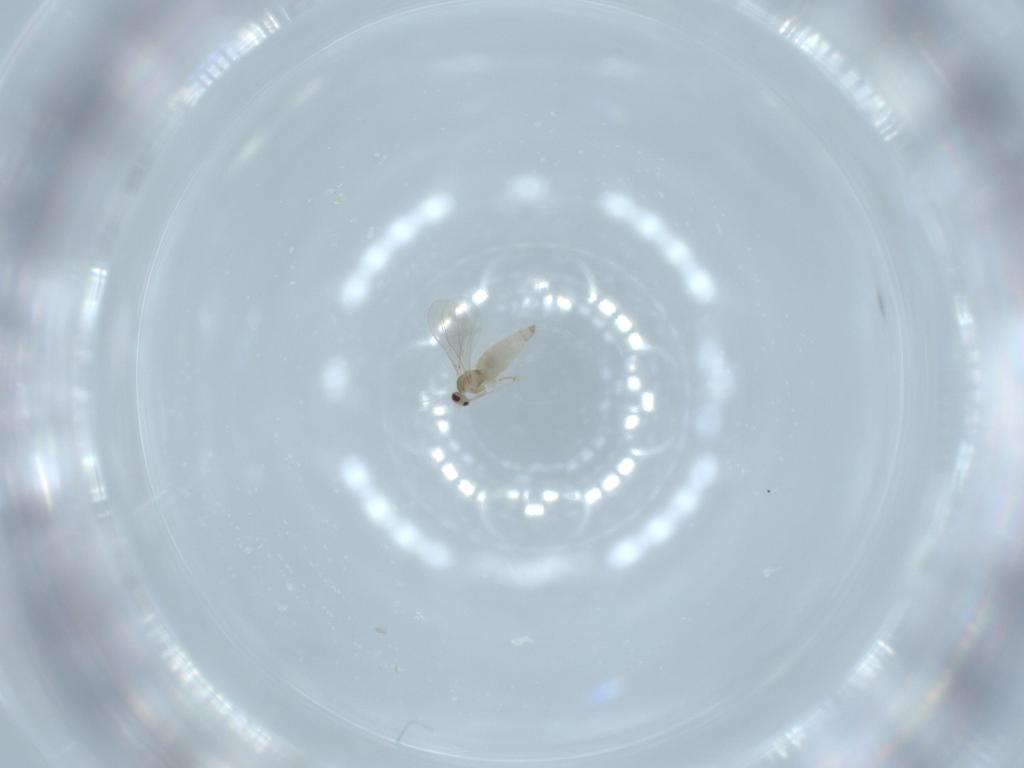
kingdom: Animalia
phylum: Arthropoda
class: Insecta
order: Diptera
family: Cecidomyiidae
